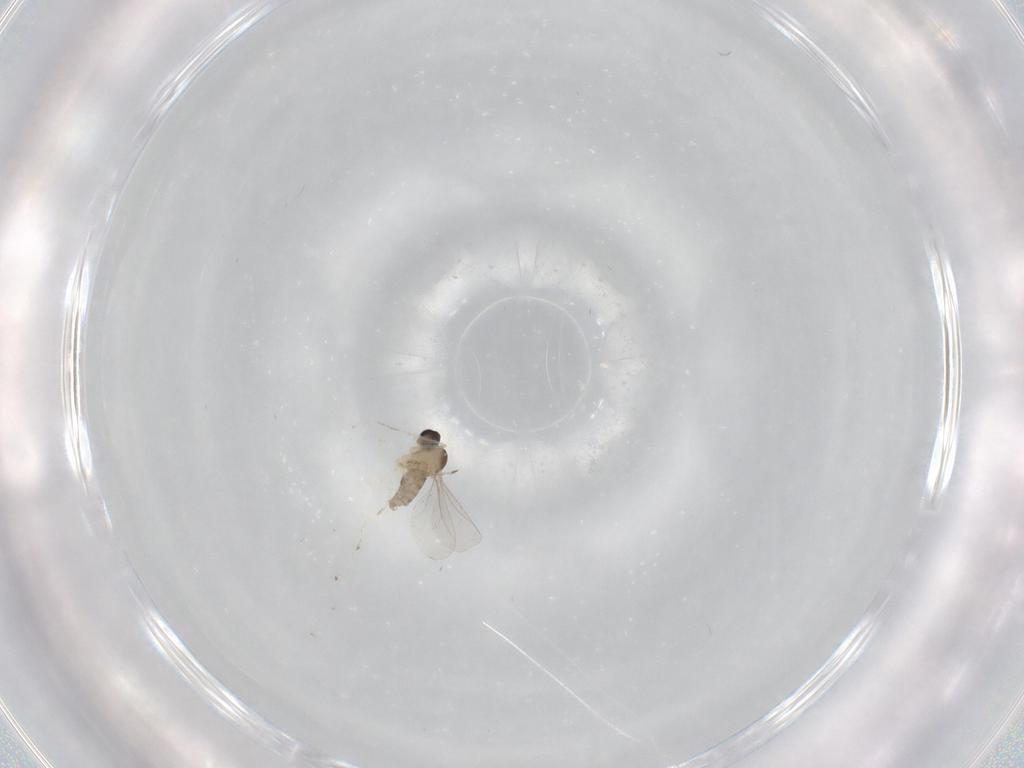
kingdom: Animalia
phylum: Arthropoda
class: Insecta
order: Diptera
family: Cecidomyiidae
